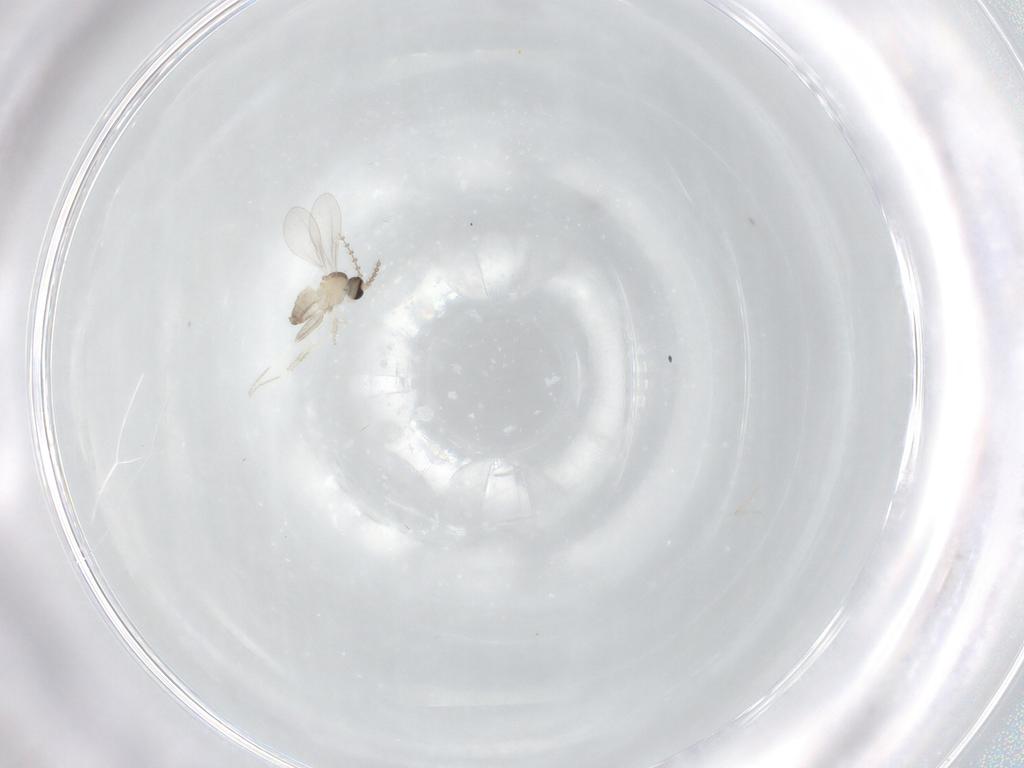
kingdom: Animalia
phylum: Arthropoda
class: Insecta
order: Diptera
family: Cecidomyiidae
